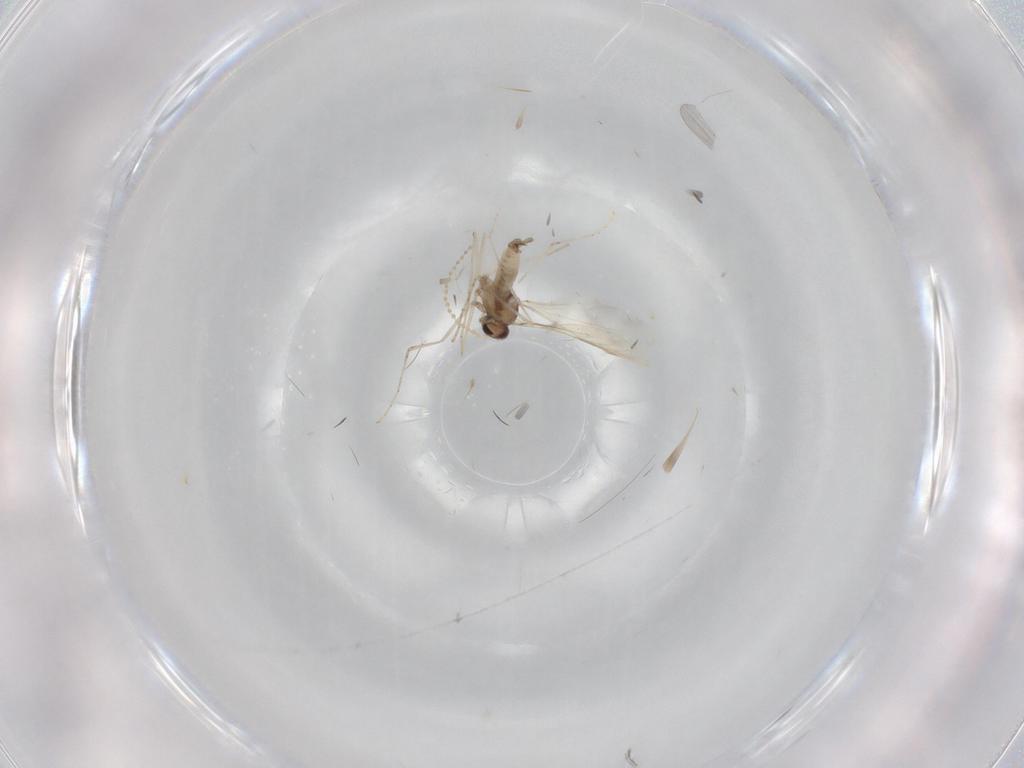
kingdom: Animalia
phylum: Arthropoda
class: Insecta
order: Diptera
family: Dolichopodidae
